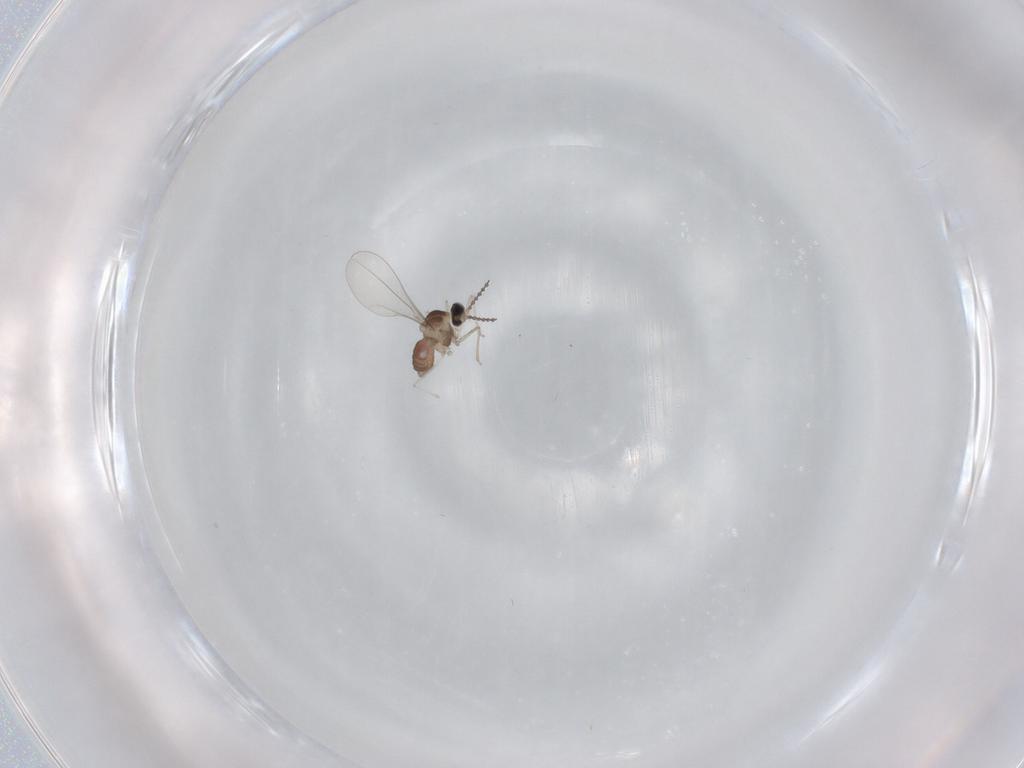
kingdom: Animalia
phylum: Arthropoda
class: Insecta
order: Diptera
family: Cecidomyiidae
